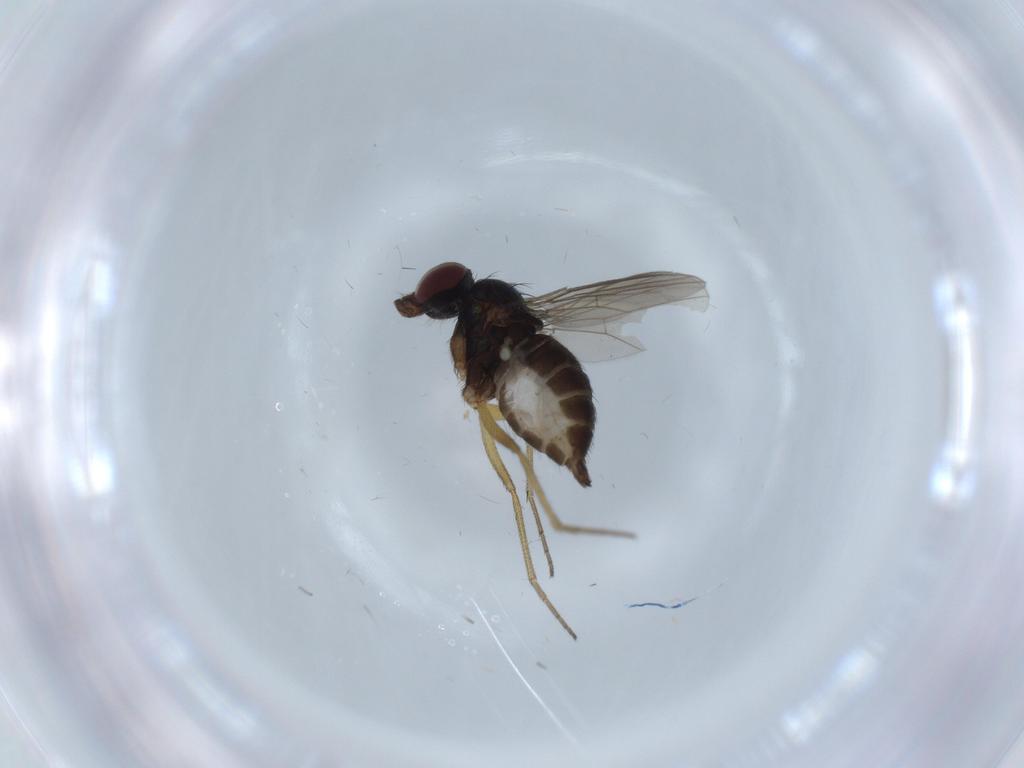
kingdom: Animalia
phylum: Arthropoda
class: Insecta
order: Diptera
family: Dolichopodidae
